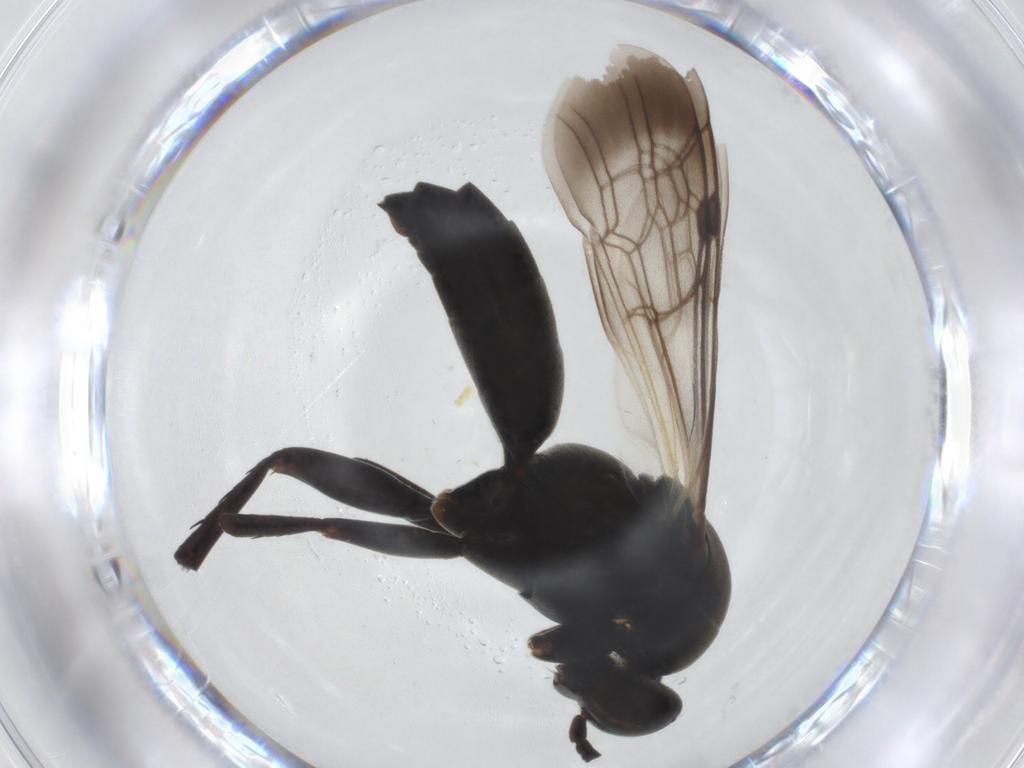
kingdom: Animalia
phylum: Arthropoda
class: Insecta
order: Hymenoptera
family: Pompilidae
